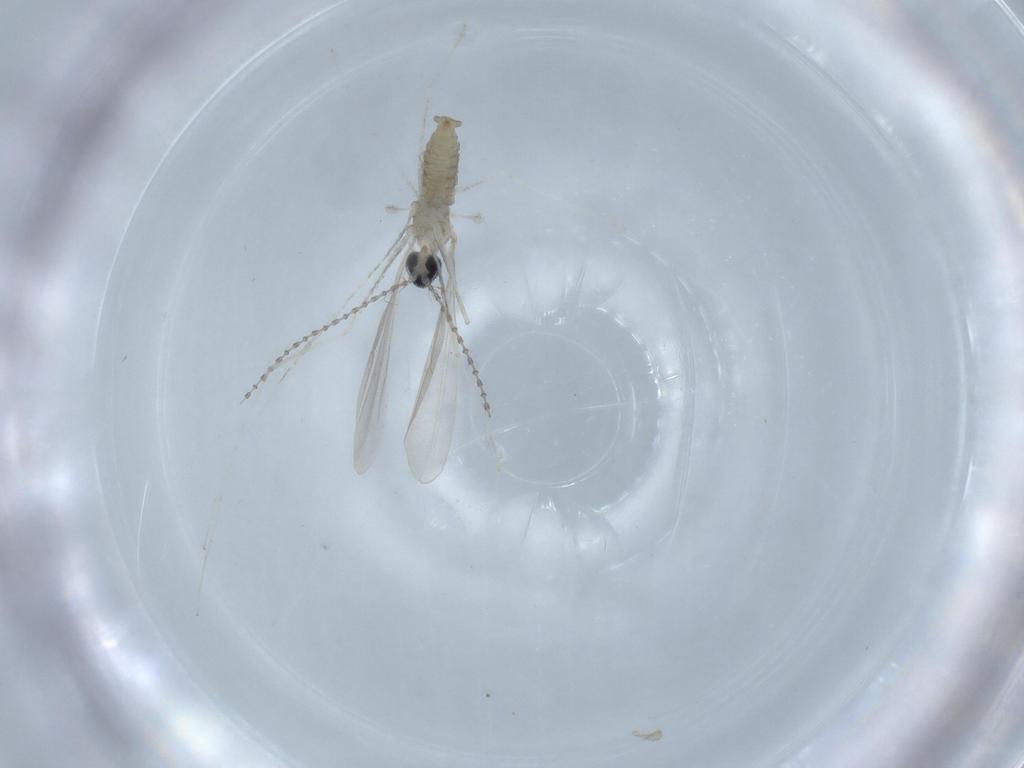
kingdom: Animalia
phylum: Arthropoda
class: Insecta
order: Diptera
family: Cecidomyiidae
